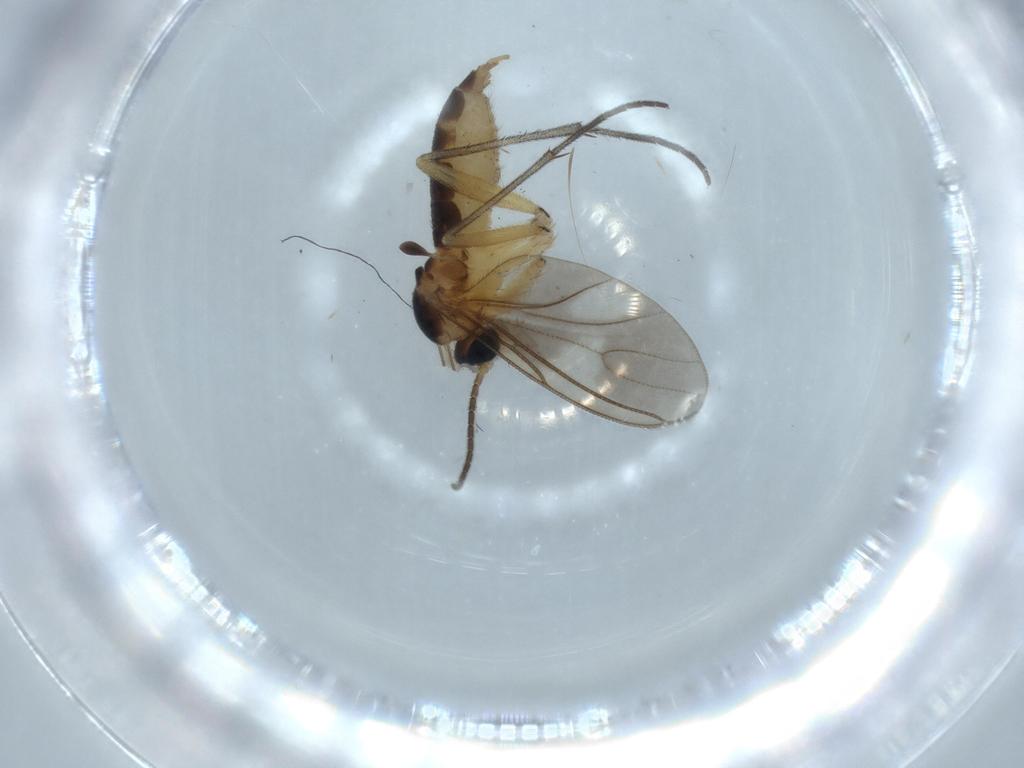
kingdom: Animalia
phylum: Arthropoda
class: Insecta
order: Diptera
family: Sciaridae
